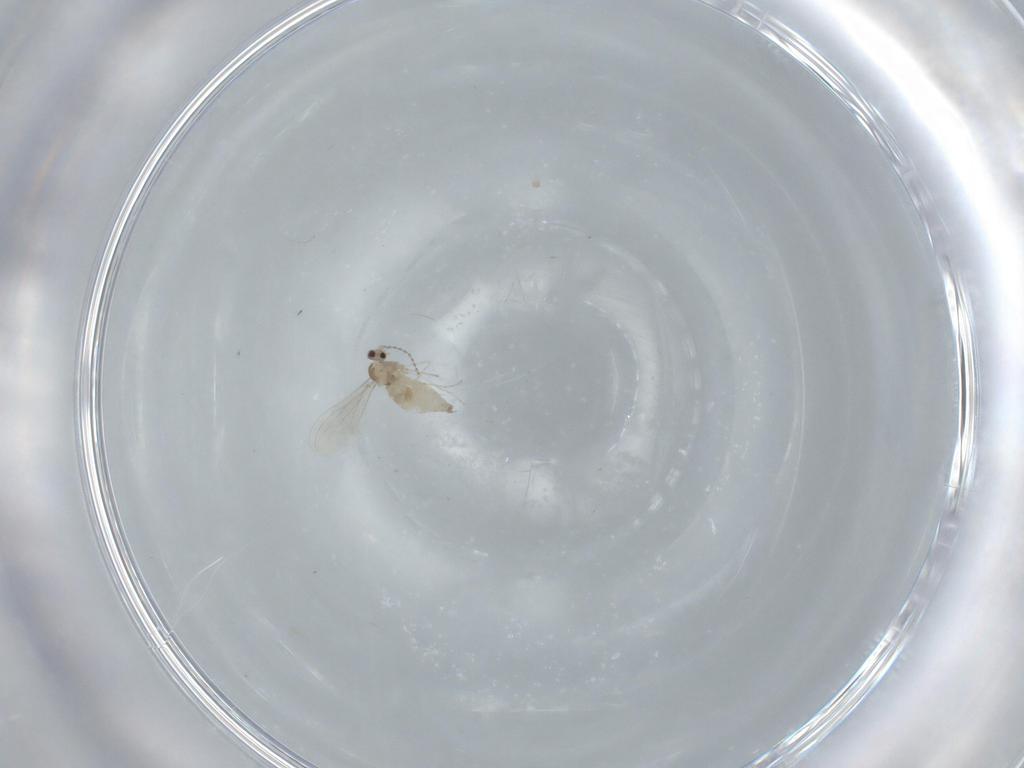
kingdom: Animalia
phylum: Arthropoda
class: Insecta
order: Diptera
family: Cecidomyiidae
